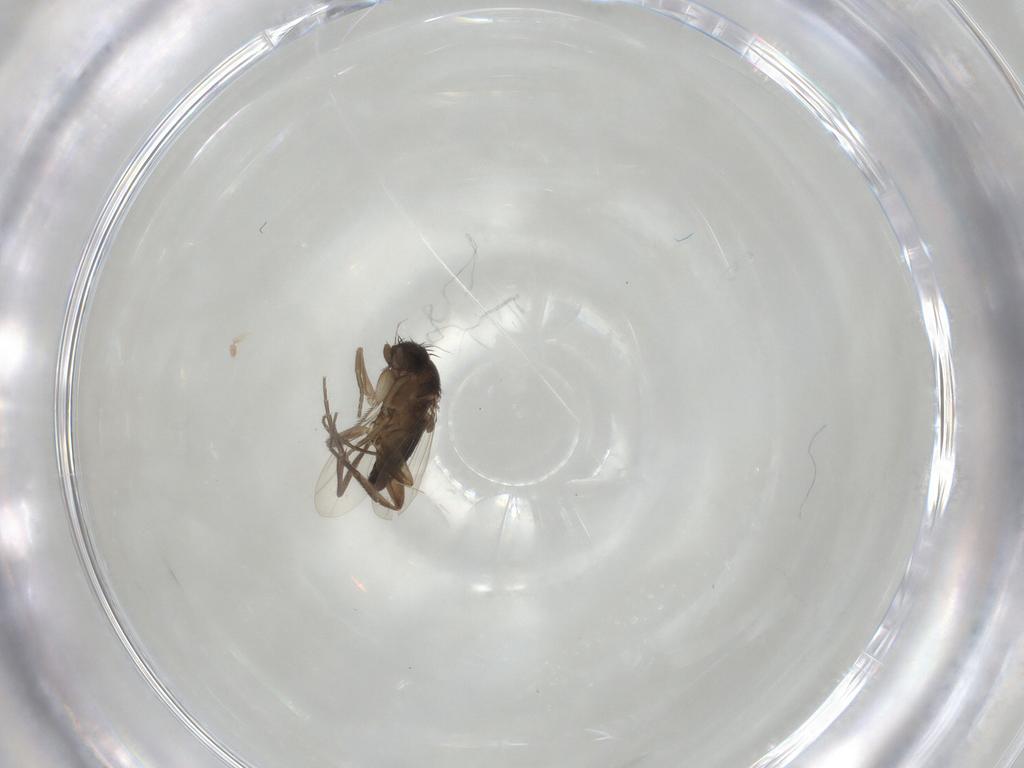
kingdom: Animalia
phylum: Arthropoda
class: Insecta
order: Diptera
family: Phoridae
